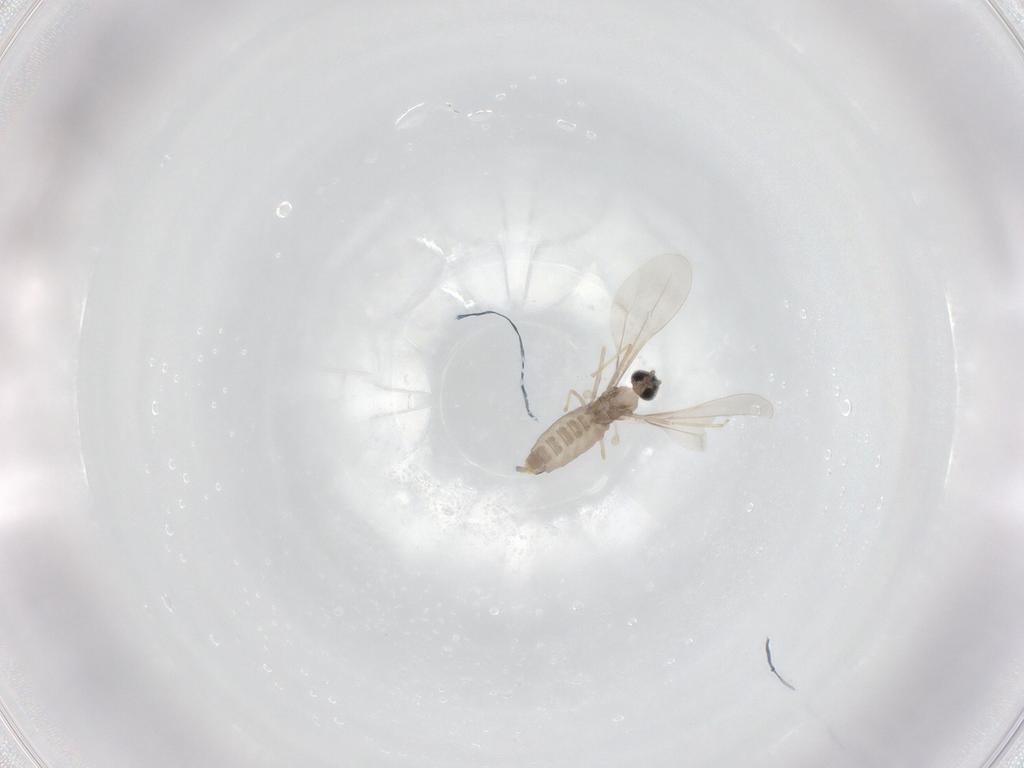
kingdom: Animalia
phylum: Arthropoda
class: Insecta
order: Diptera
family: Cecidomyiidae
